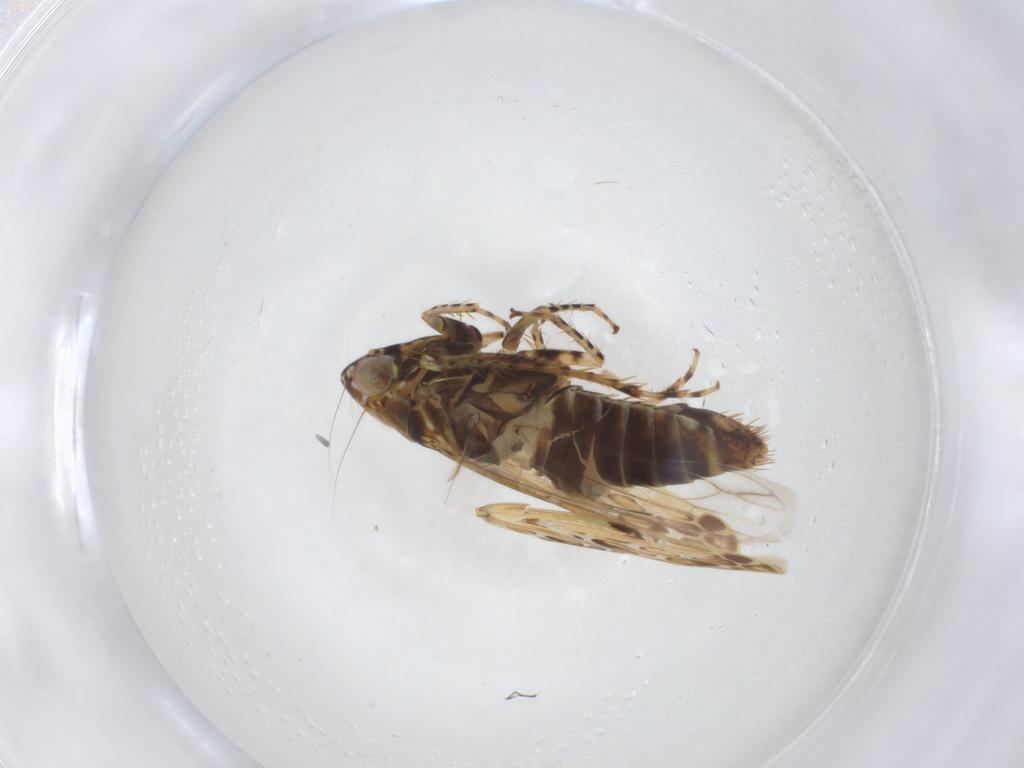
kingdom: Animalia
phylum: Arthropoda
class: Insecta
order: Hemiptera
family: Cicadellidae
